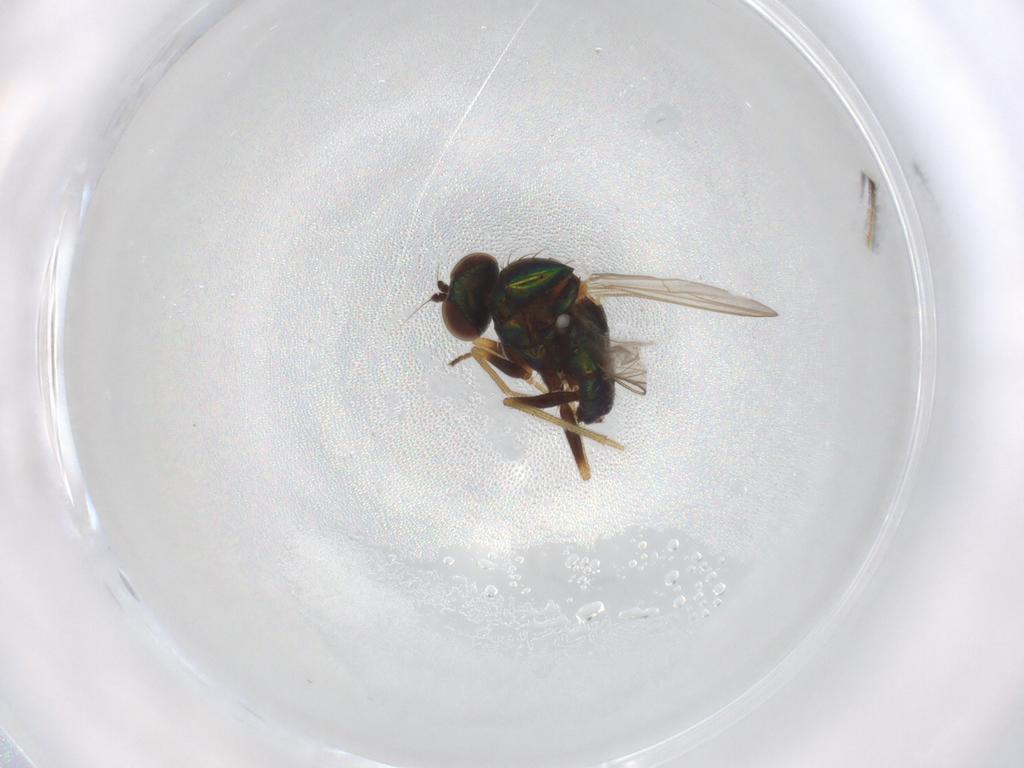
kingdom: Animalia
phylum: Arthropoda
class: Insecta
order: Diptera
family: Dolichopodidae
